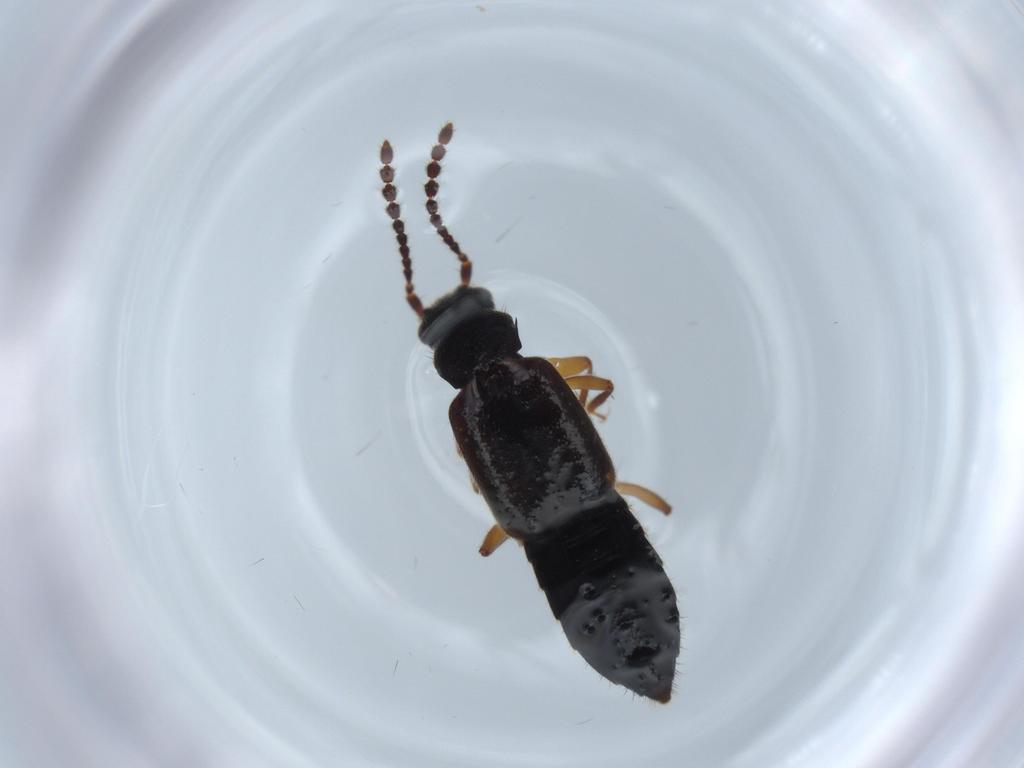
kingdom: Animalia
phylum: Arthropoda
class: Insecta
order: Coleoptera
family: Staphylinidae
